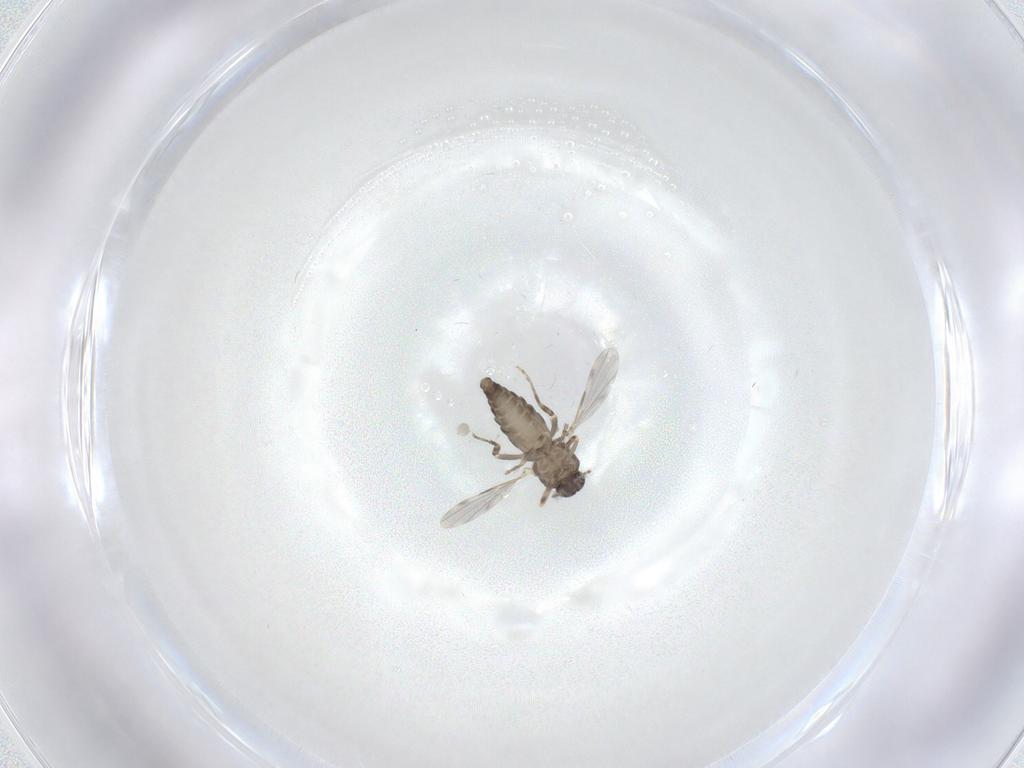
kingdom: Animalia
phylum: Arthropoda
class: Insecta
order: Diptera
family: Ceratopogonidae
